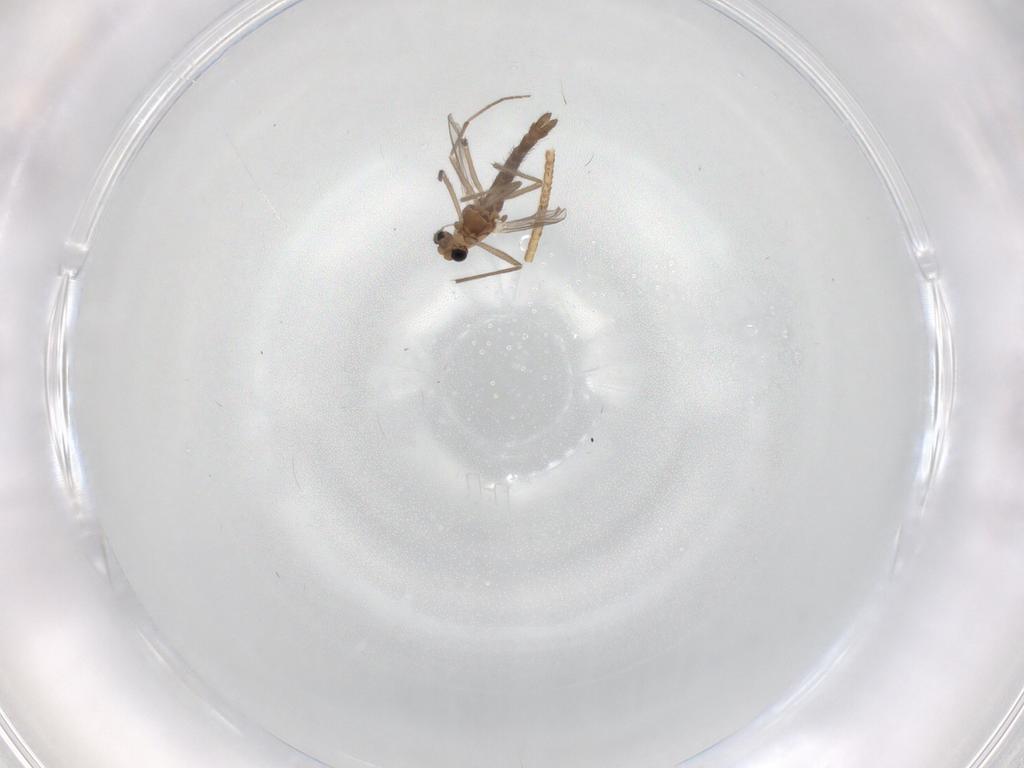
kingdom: Animalia
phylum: Arthropoda
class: Insecta
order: Diptera
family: Chironomidae
